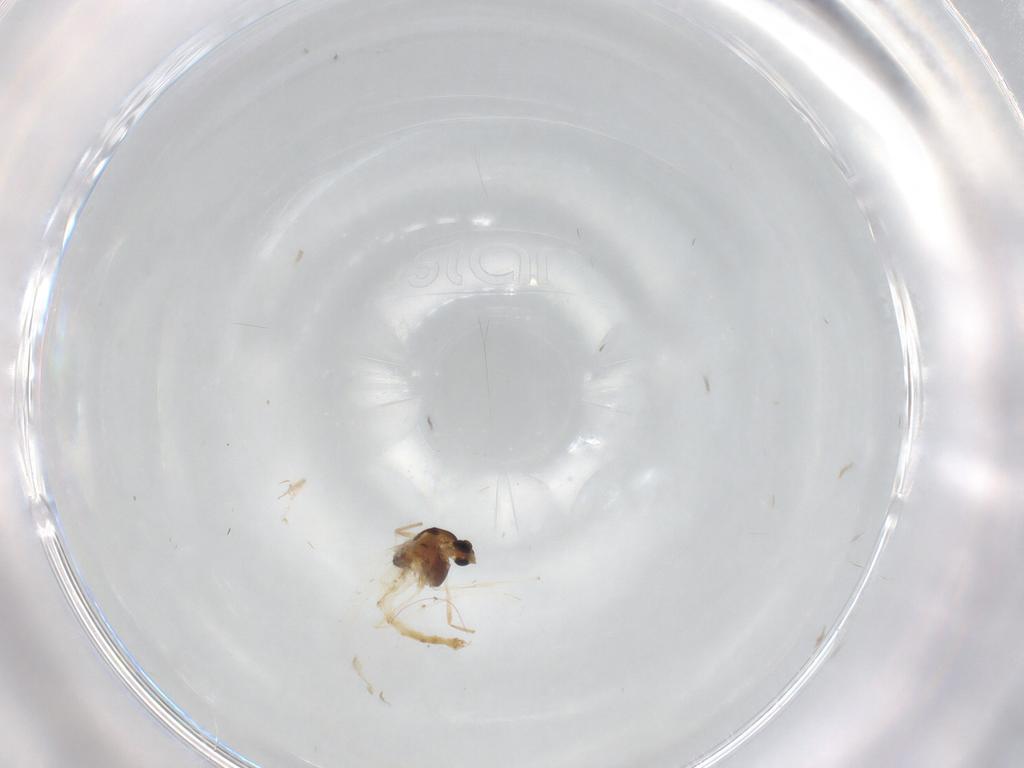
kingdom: Animalia
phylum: Arthropoda
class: Insecta
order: Diptera
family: Chironomidae
